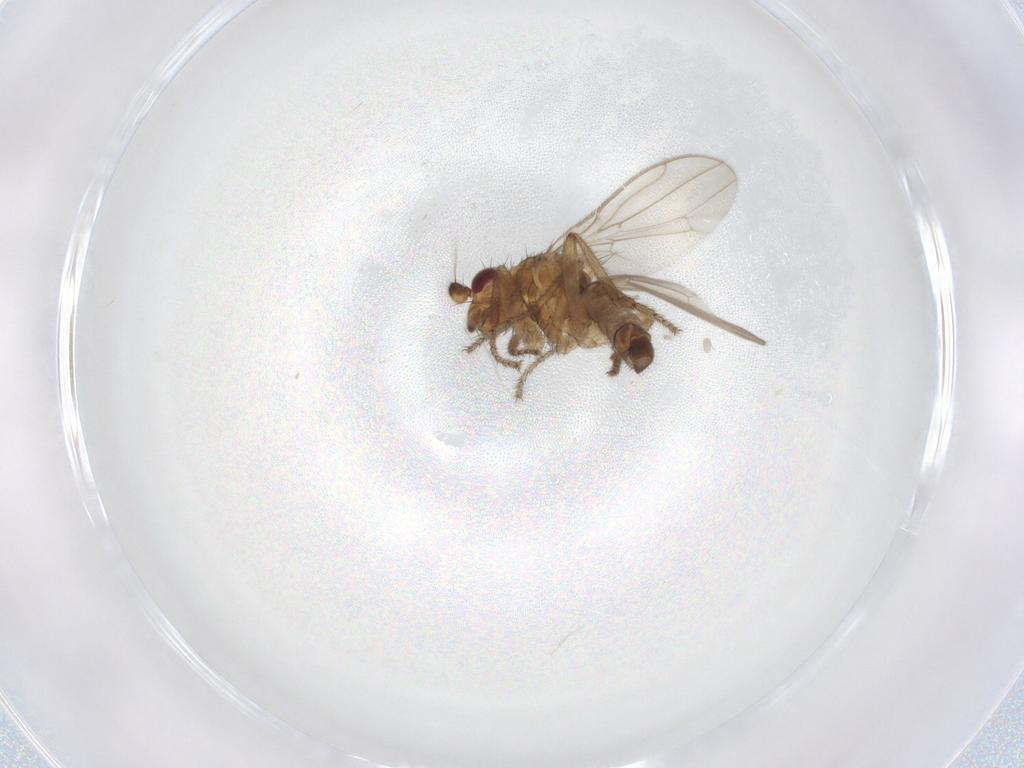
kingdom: Animalia
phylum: Arthropoda
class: Insecta
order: Diptera
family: Sphaeroceridae
